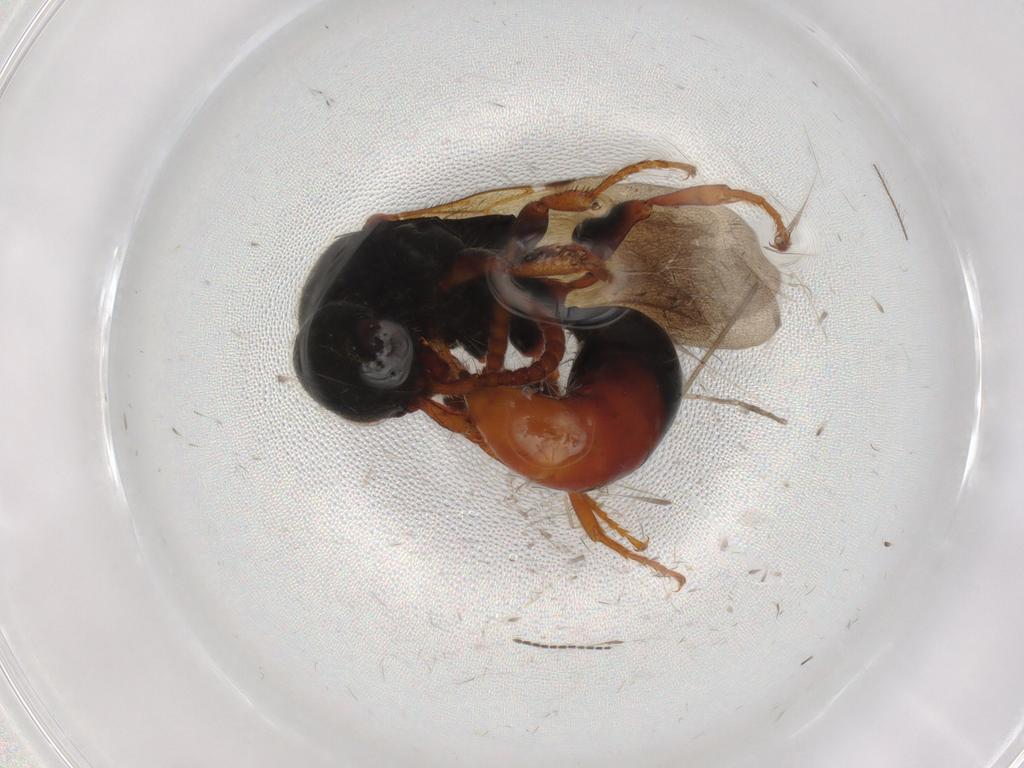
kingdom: Animalia
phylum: Arthropoda
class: Insecta
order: Hymenoptera
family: Bethylidae
